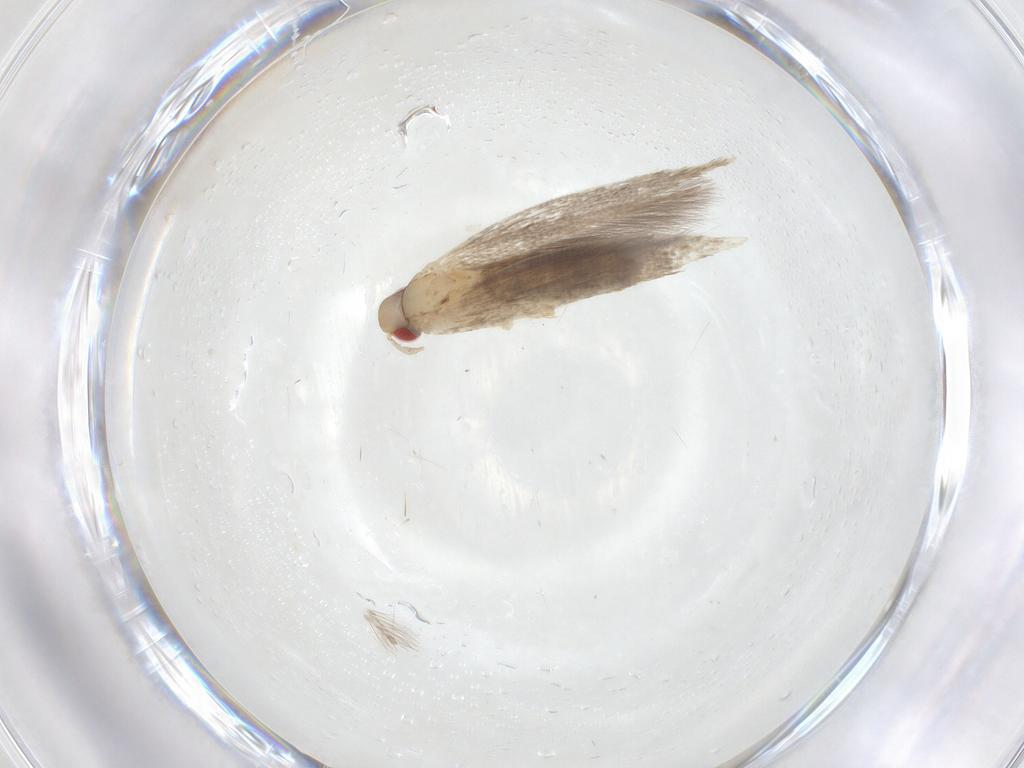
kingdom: Animalia
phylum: Arthropoda
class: Insecta
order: Lepidoptera
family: Cosmopterigidae
